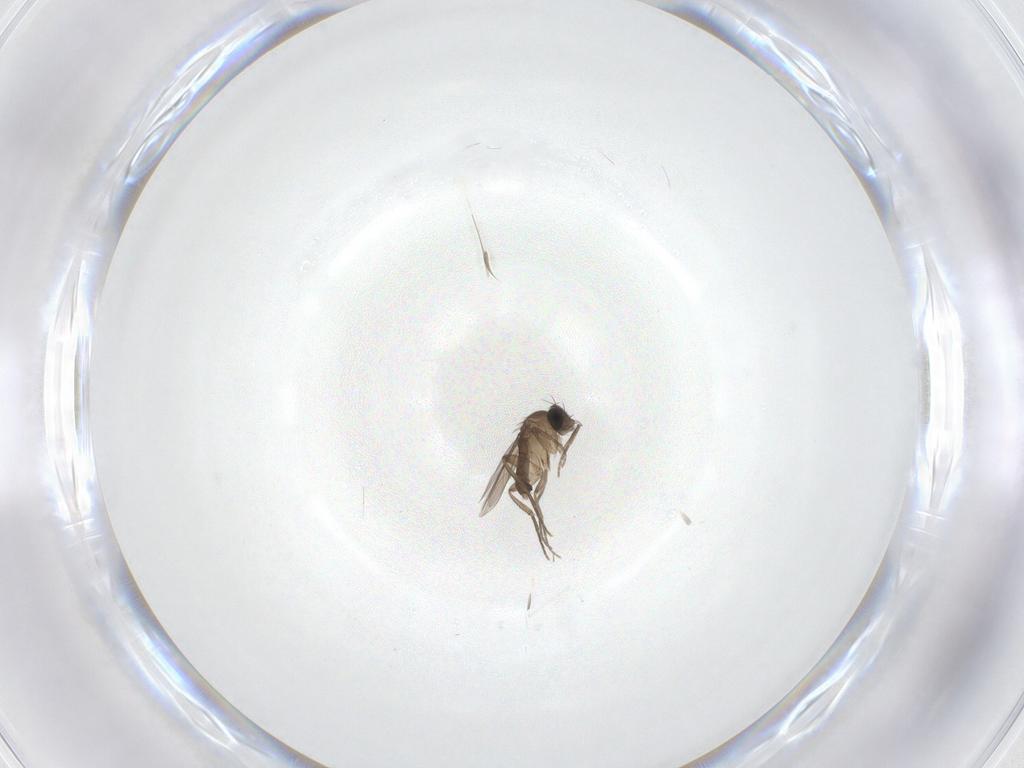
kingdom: Animalia
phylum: Arthropoda
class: Insecta
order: Diptera
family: Phoridae
